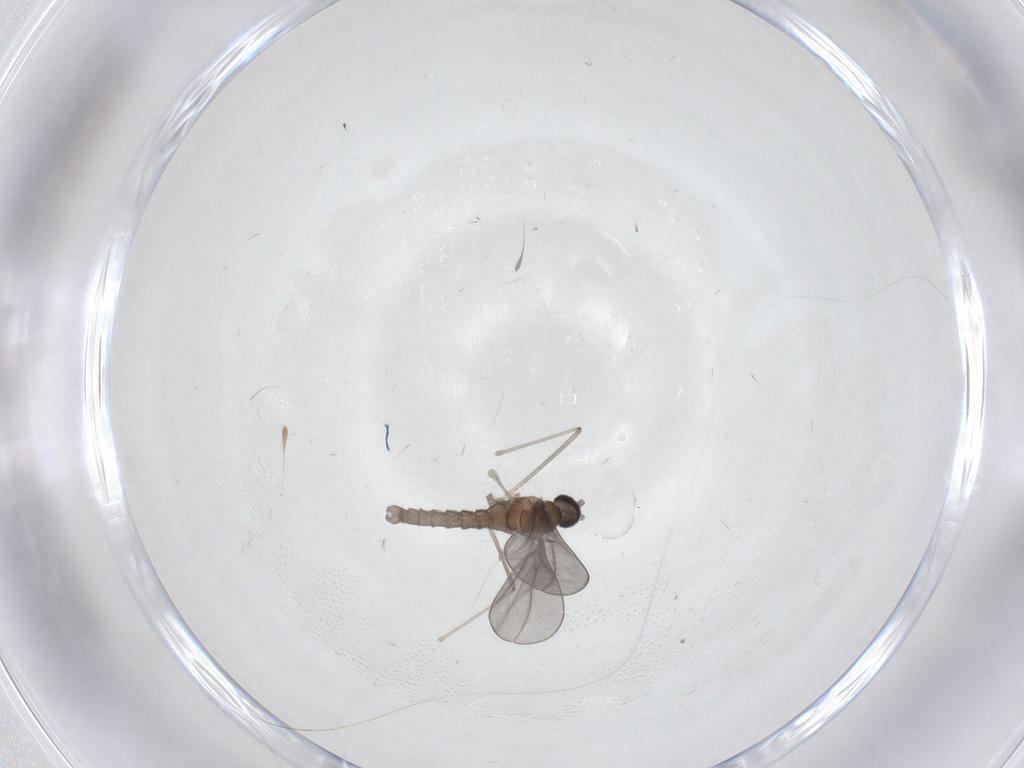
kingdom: Animalia
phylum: Arthropoda
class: Insecta
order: Diptera
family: Cecidomyiidae
